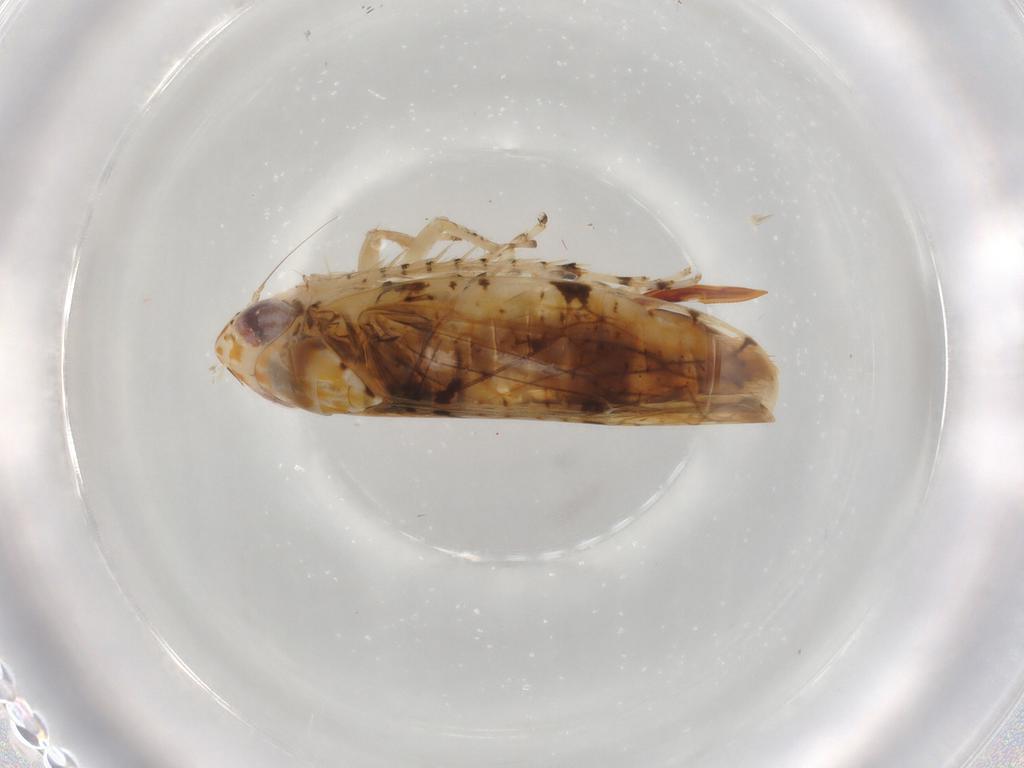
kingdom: Animalia
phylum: Arthropoda
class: Insecta
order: Hemiptera
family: Cicadellidae
